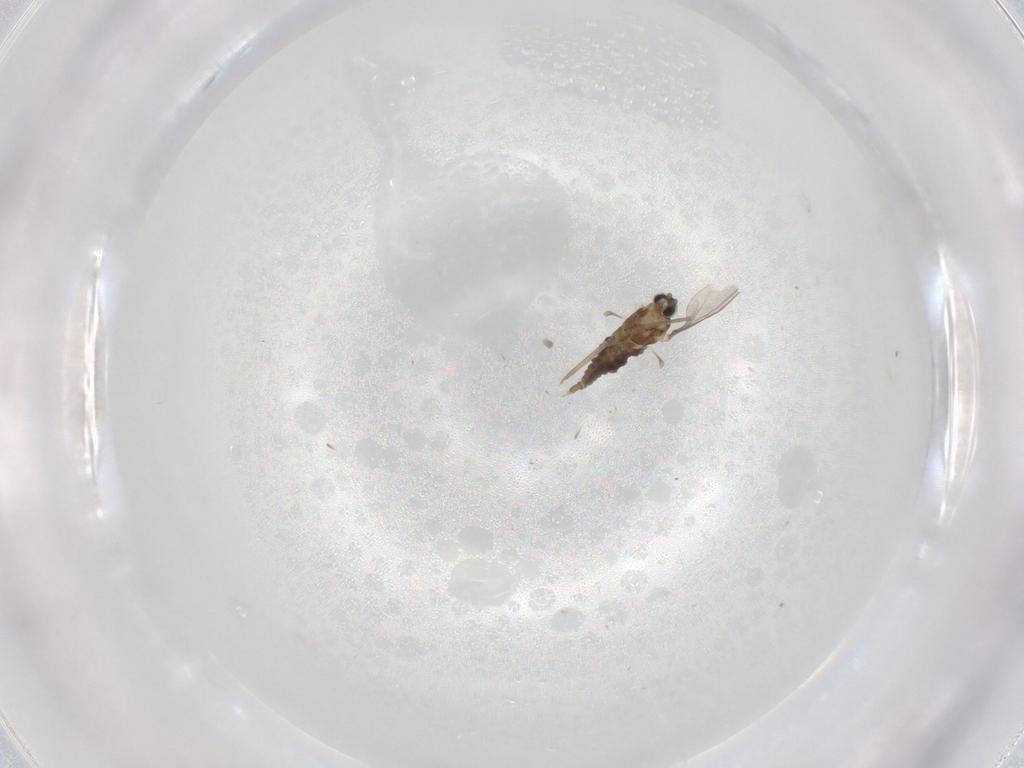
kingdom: Animalia
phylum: Arthropoda
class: Insecta
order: Diptera
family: Cecidomyiidae
